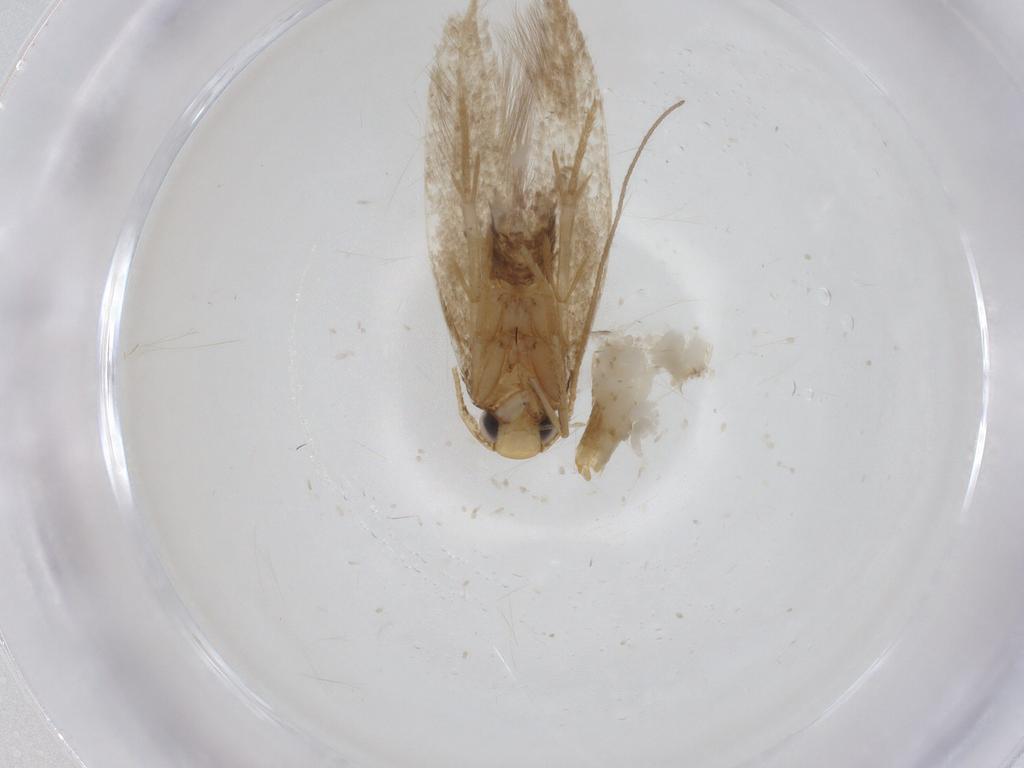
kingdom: Animalia
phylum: Arthropoda
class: Insecta
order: Lepidoptera
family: Tineidae
